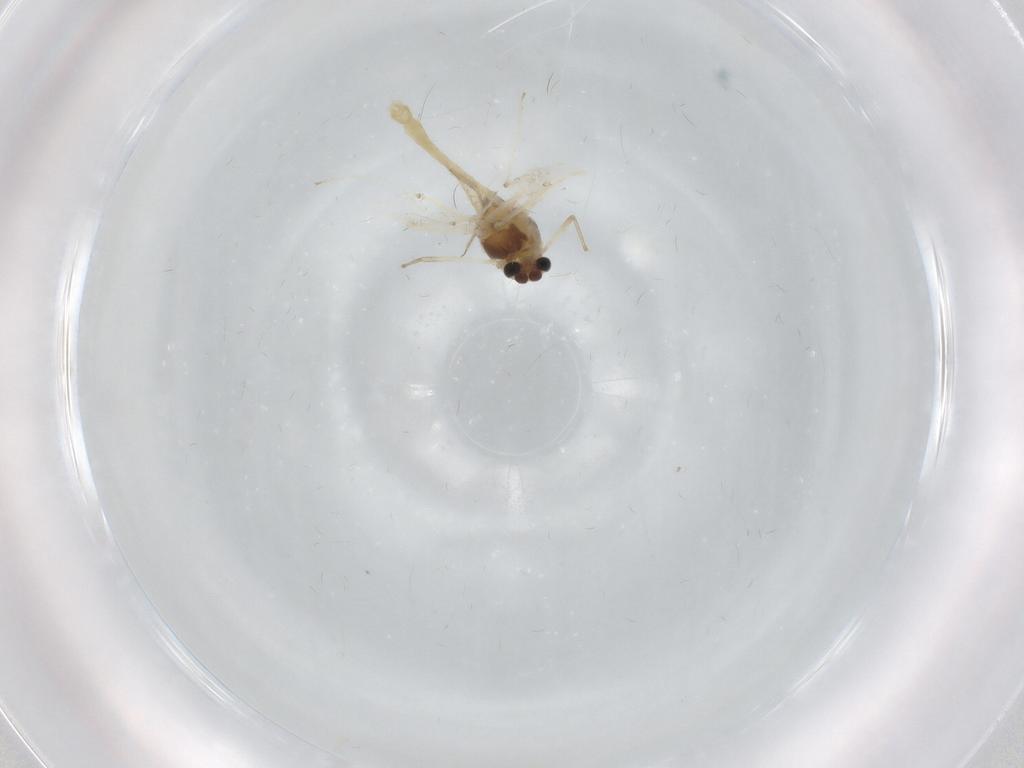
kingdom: Animalia
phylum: Arthropoda
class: Insecta
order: Diptera
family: Chironomidae
